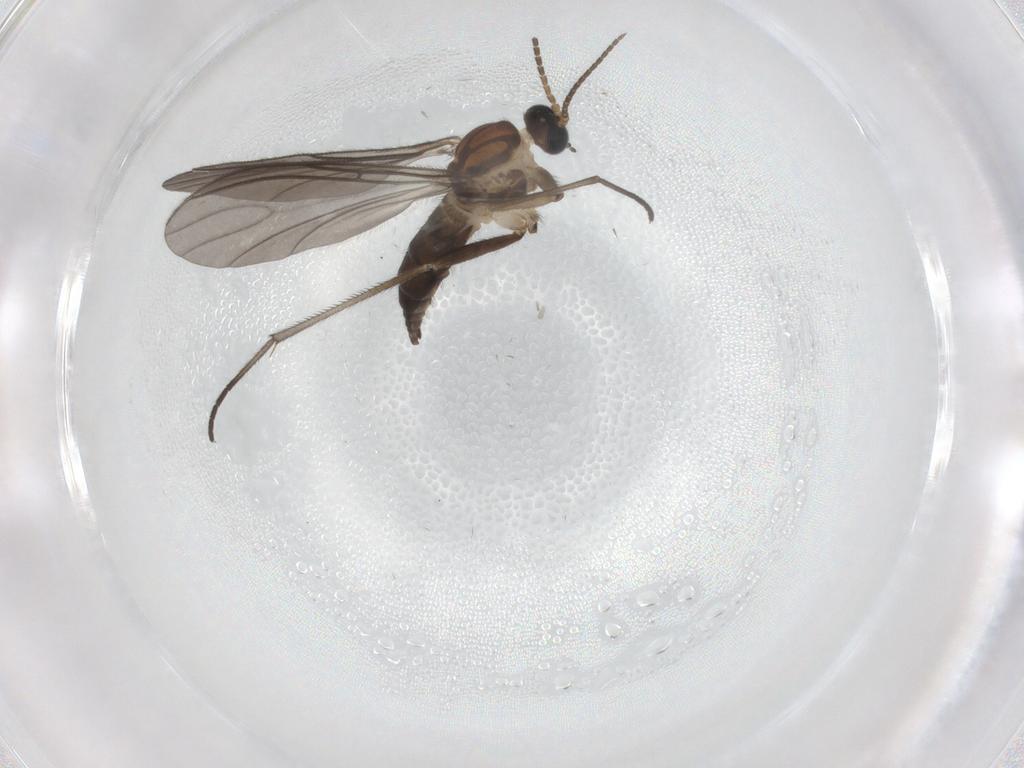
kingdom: Animalia
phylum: Arthropoda
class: Insecta
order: Diptera
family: Sciaridae
